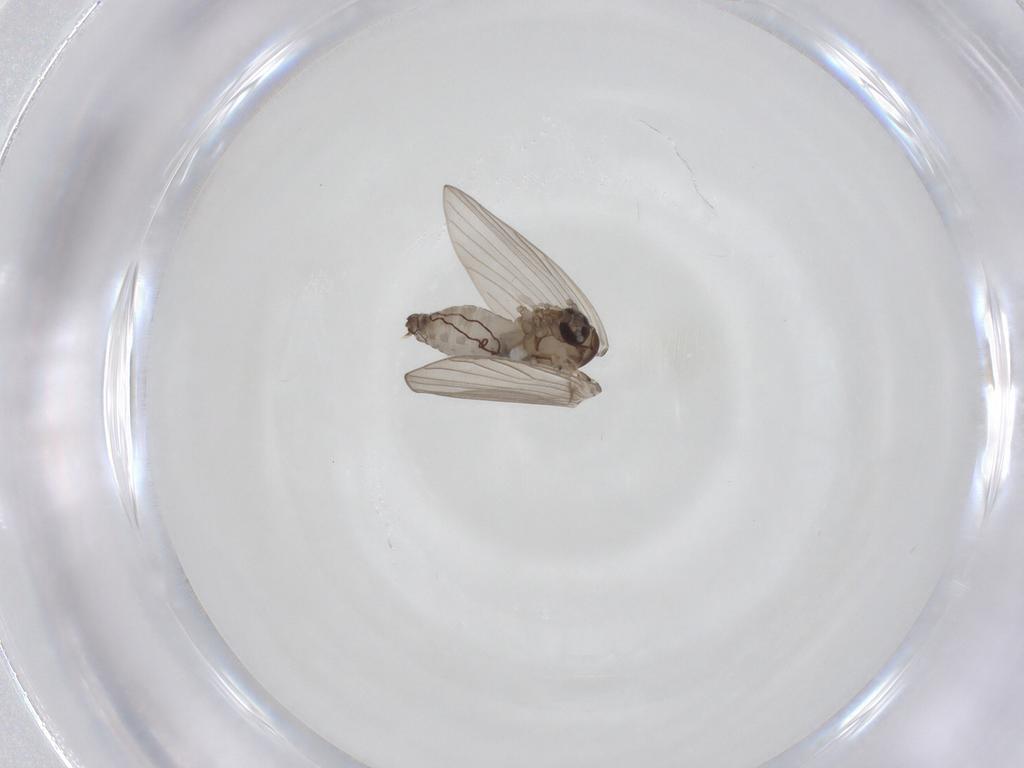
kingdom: Animalia
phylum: Arthropoda
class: Insecta
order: Diptera
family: Psychodidae
